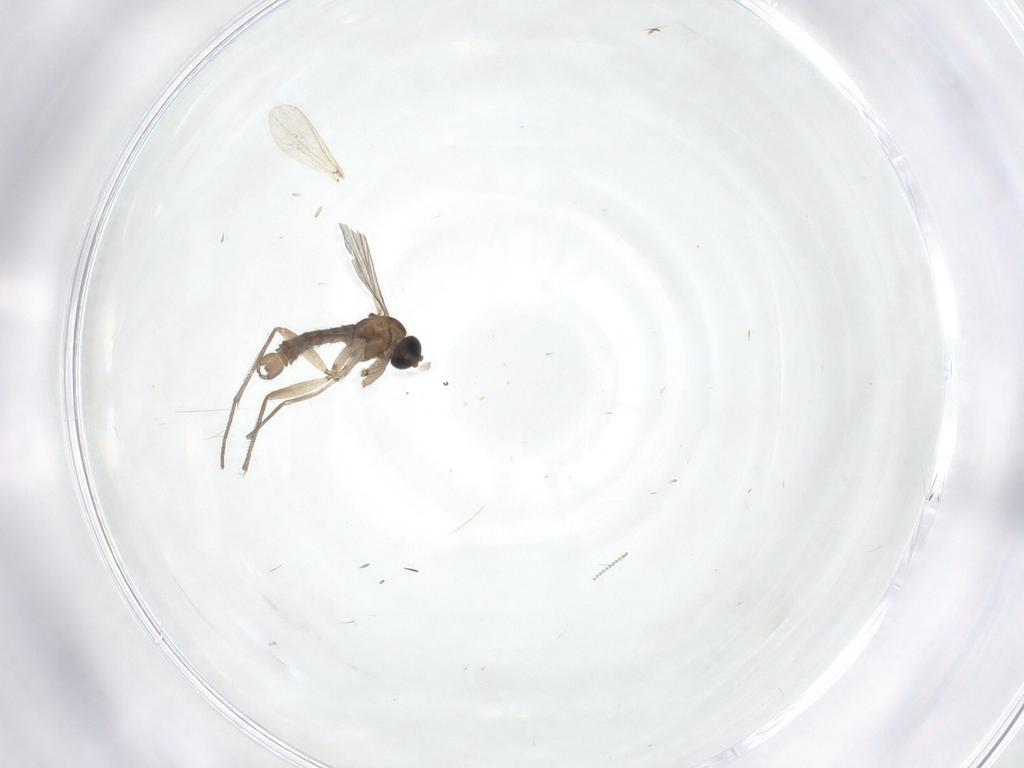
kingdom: Animalia
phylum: Arthropoda
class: Insecta
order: Diptera
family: Sciaridae
